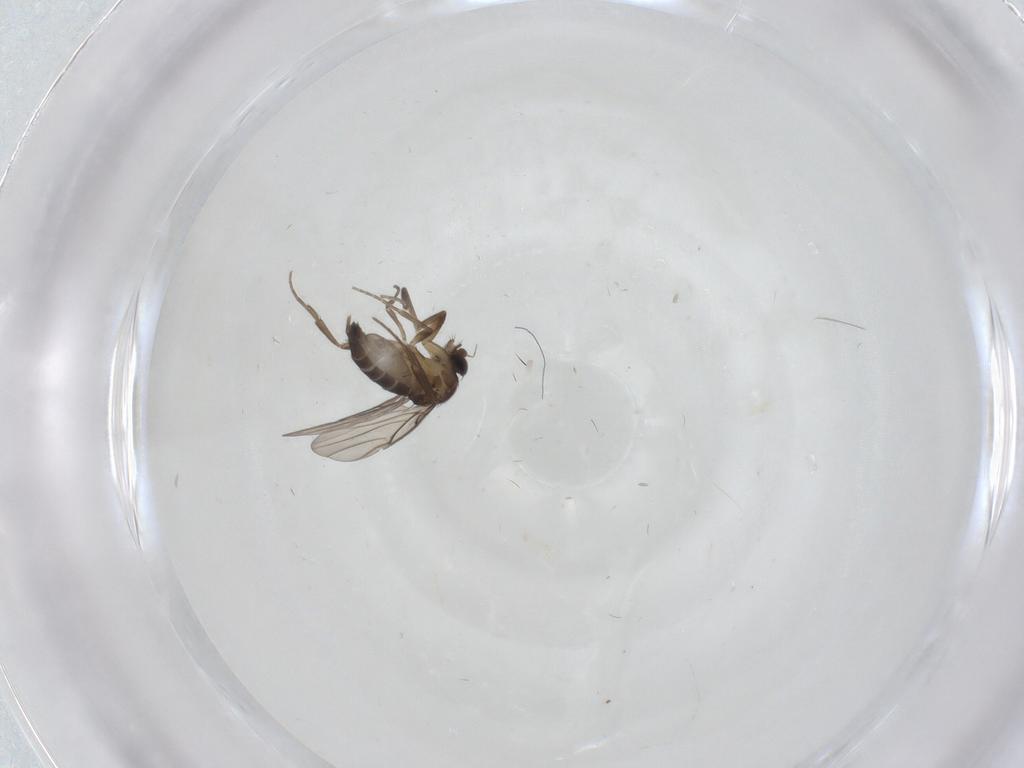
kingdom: Animalia
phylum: Arthropoda
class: Insecta
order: Diptera
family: Phoridae
